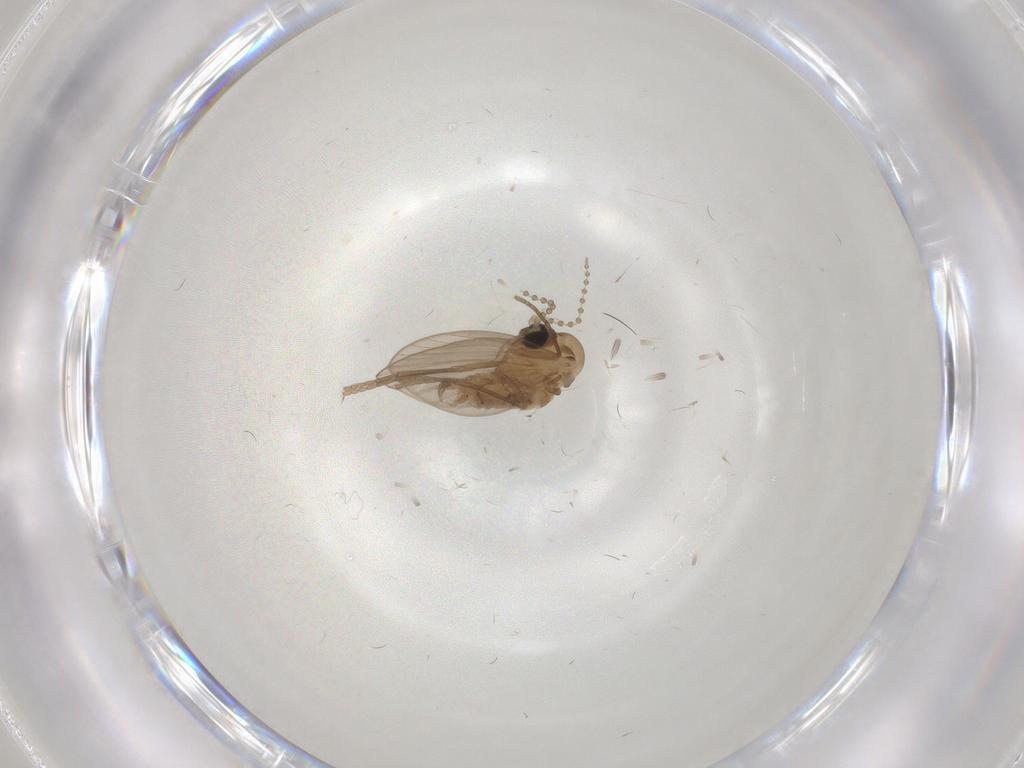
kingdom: Animalia
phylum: Arthropoda
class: Insecta
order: Diptera
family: Psychodidae
